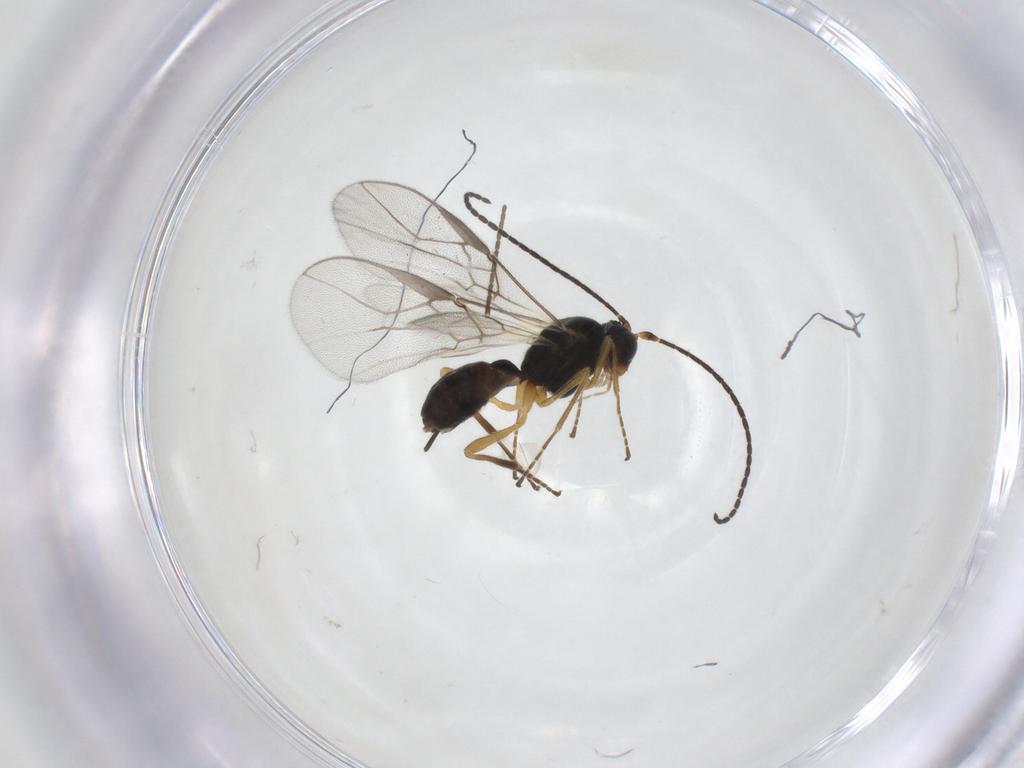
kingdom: Animalia
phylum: Arthropoda
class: Insecta
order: Hymenoptera
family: Braconidae
